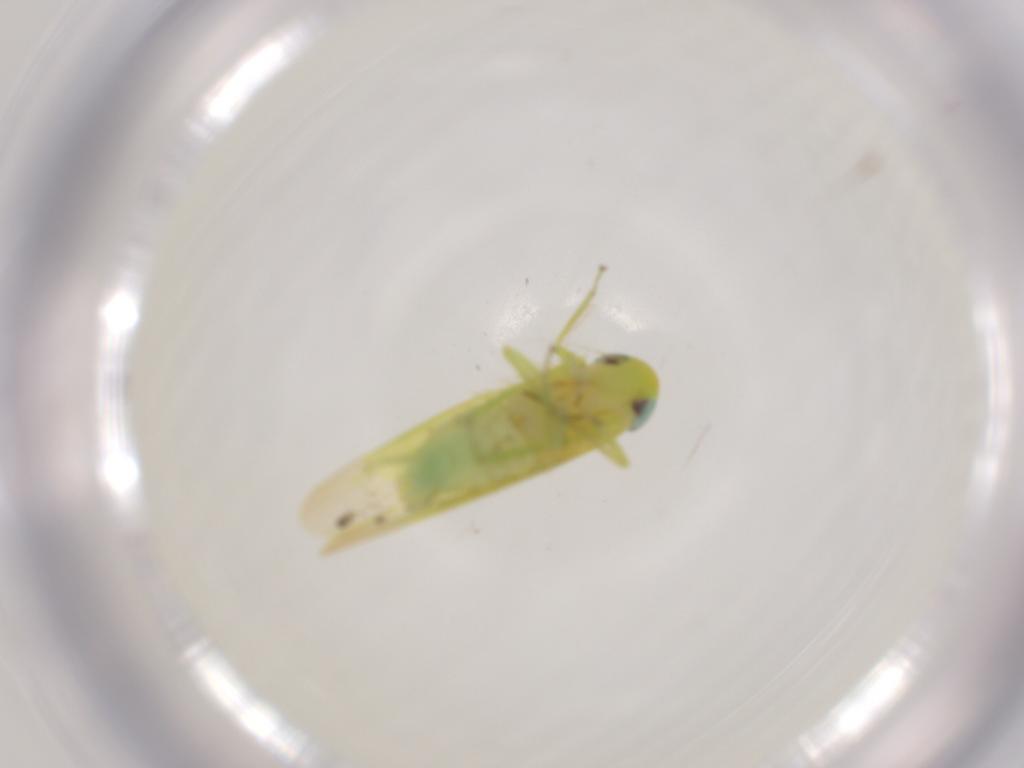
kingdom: Animalia
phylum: Arthropoda
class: Insecta
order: Hemiptera
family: Cicadellidae
